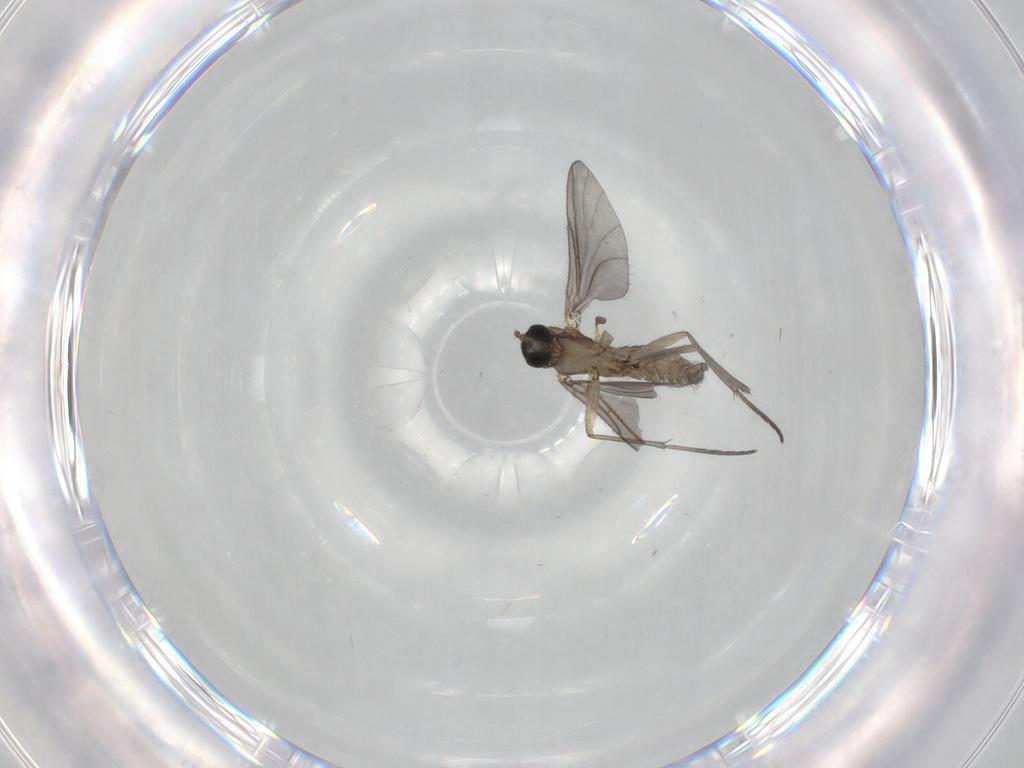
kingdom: Animalia
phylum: Arthropoda
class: Insecta
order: Diptera
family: Sciaridae
